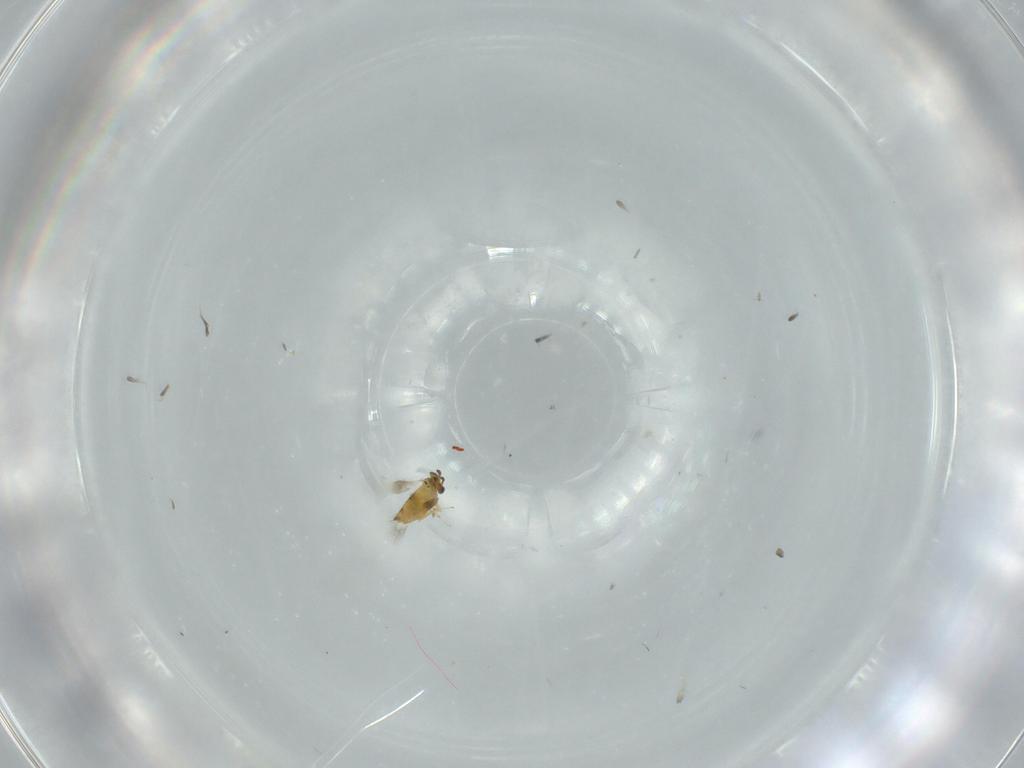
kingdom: Animalia
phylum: Arthropoda
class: Insecta
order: Hymenoptera
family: Signiphoridae
